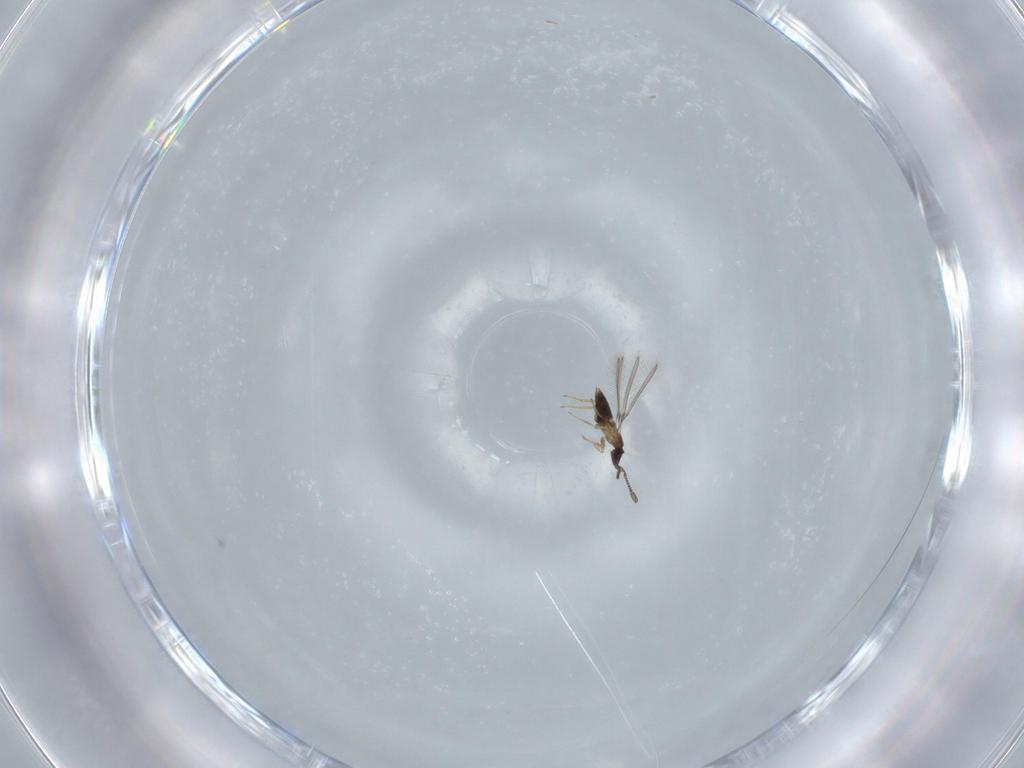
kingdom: Animalia
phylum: Arthropoda
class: Insecta
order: Hymenoptera
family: Mymaridae
